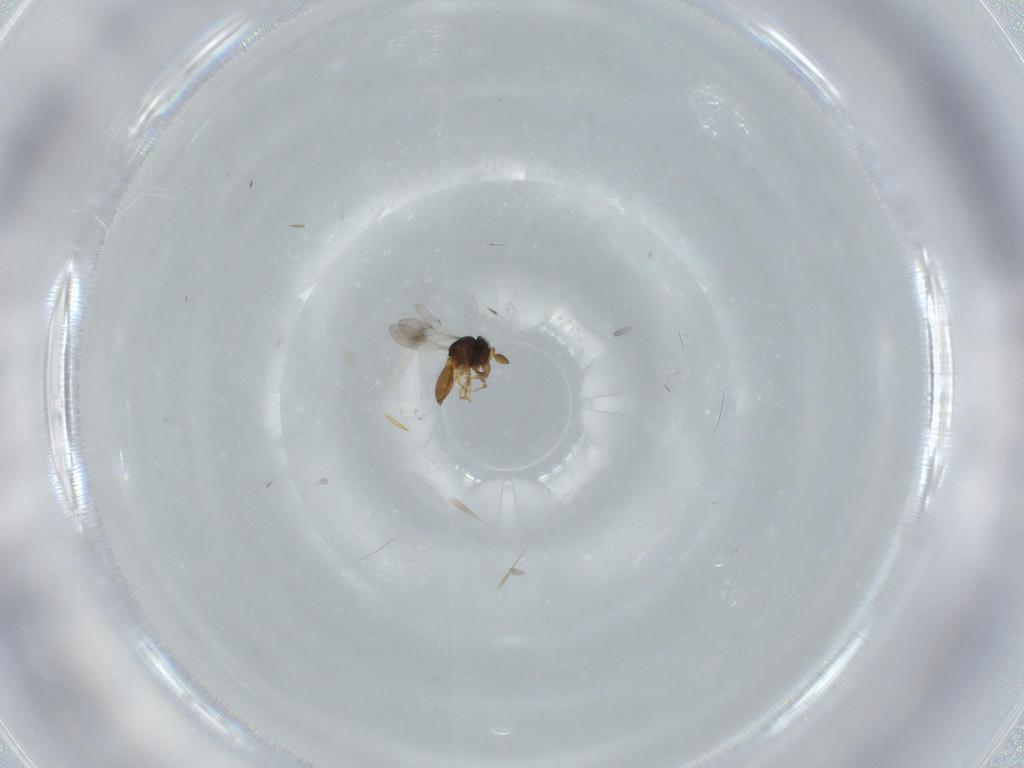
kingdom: Animalia
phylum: Arthropoda
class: Insecta
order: Hymenoptera
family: Scelionidae
